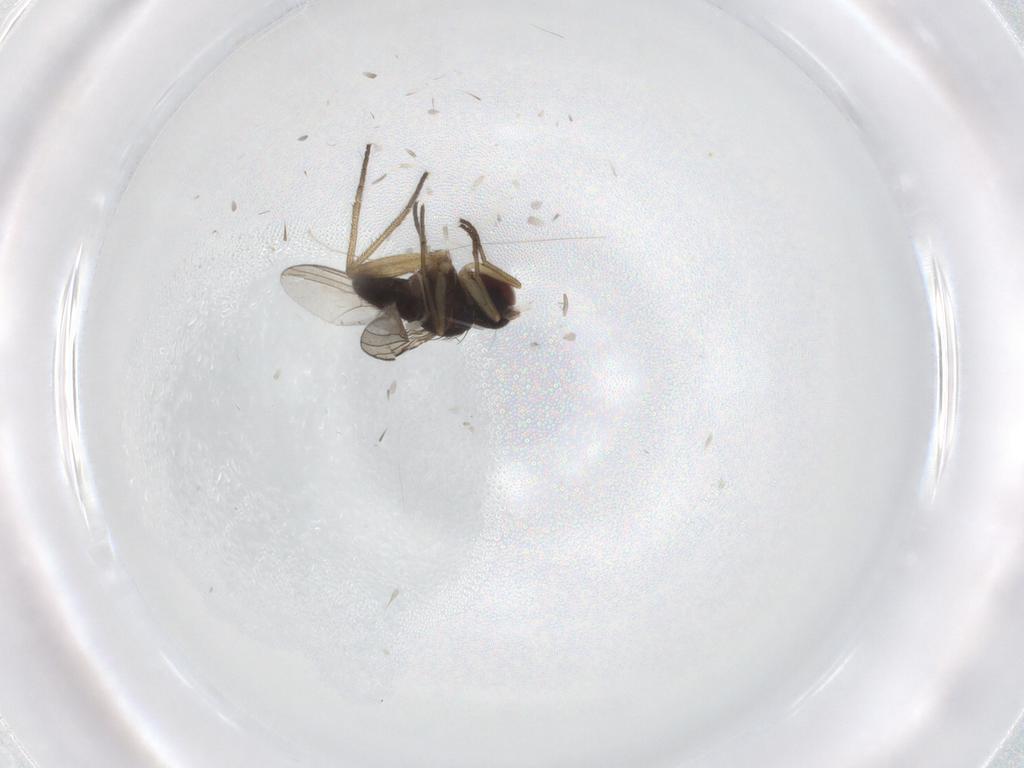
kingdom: Animalia
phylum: Arthropoda
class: Insecta
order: Diptera
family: Dolichopodidae
